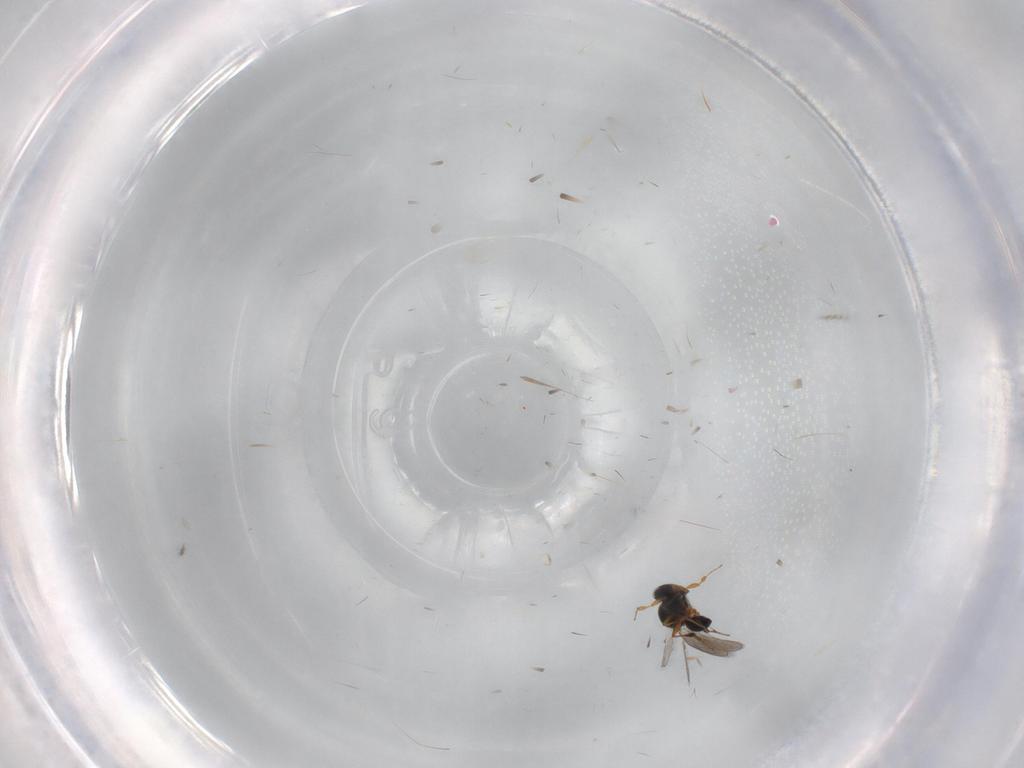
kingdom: Animalia
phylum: Arthropoda
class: Insecta
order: Hymenoptera
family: Platygastridae
